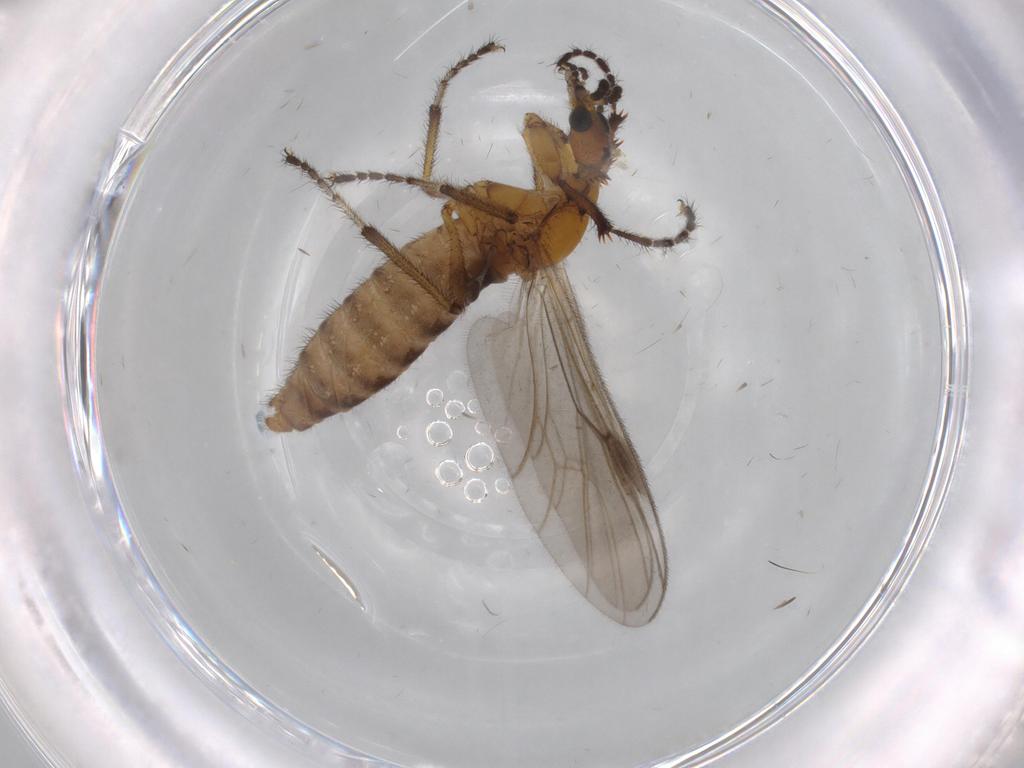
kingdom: Animalia
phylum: Arthropoda
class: Insecta
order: Diptera
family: Bibionidae
